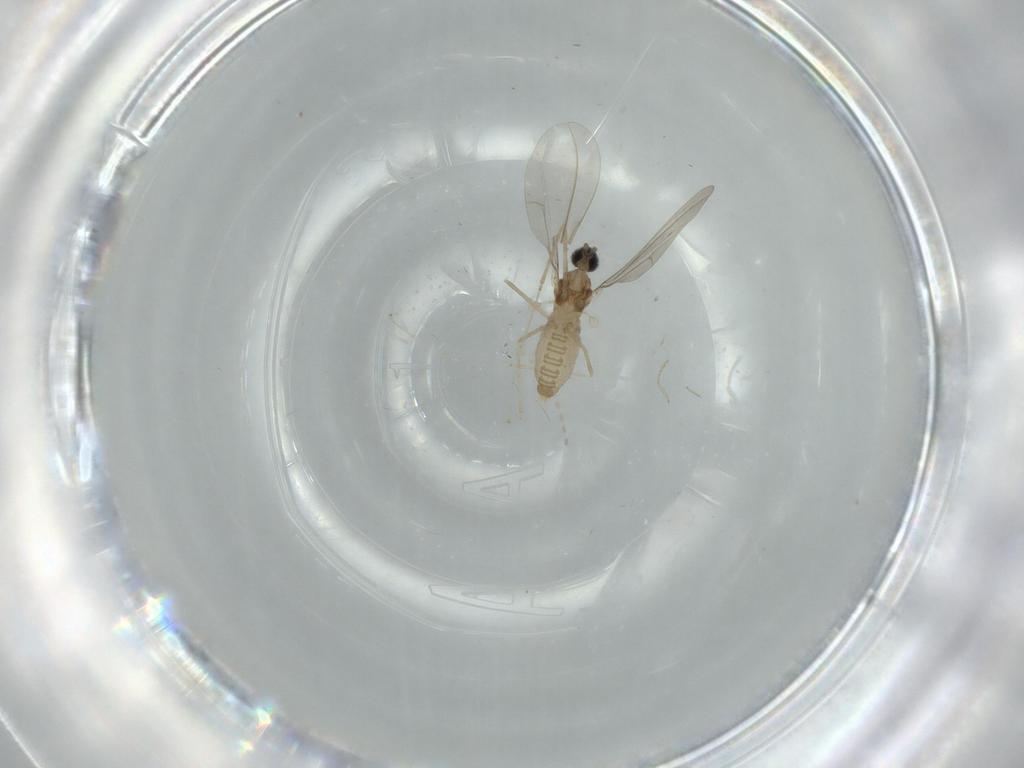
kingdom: Animalia
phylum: Arthropoda
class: Insecta
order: Diptera
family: Cecidomyiidae
